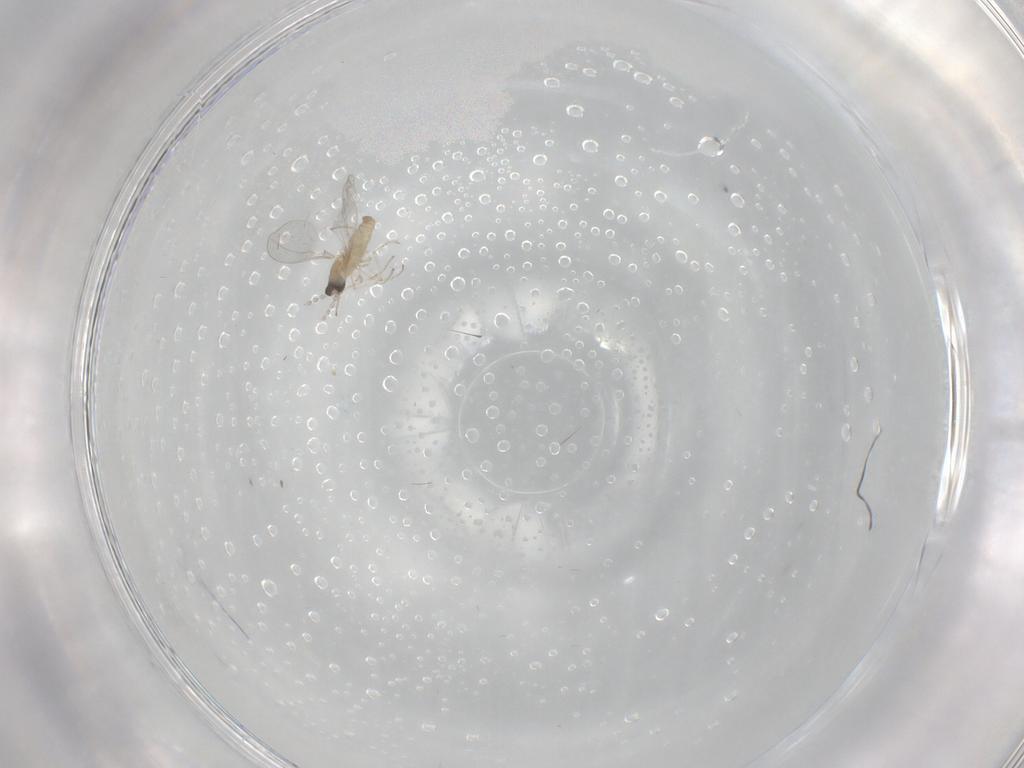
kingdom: Animalia
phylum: Arthropoda
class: Insecta
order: Diptera
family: Cecidomyiidae
